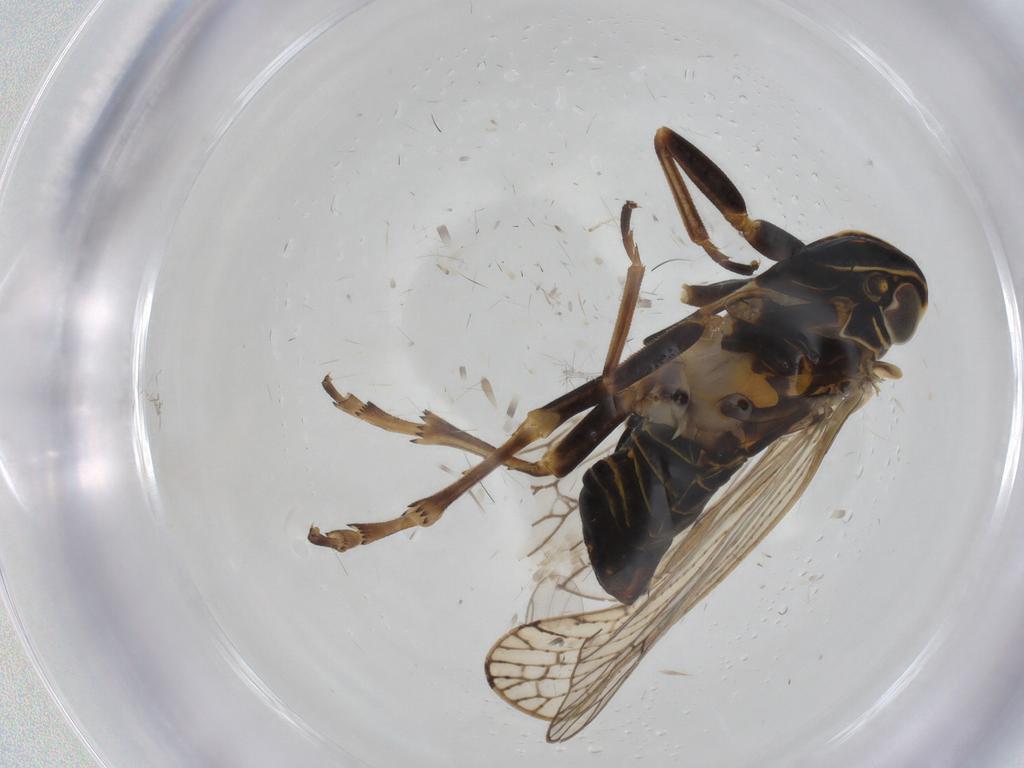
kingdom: Animalia
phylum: Arthropoda
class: Insecta
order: Hemiptera
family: Cixiidae
